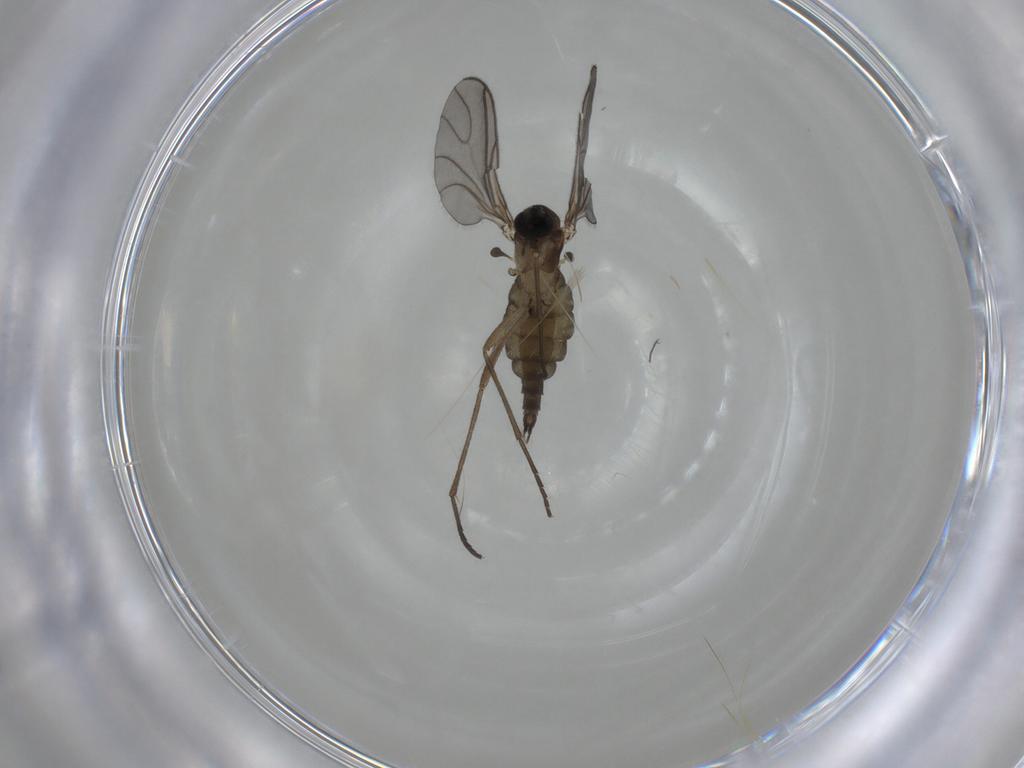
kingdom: Animalia
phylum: Arthropoda
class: Insecta
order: Diptera
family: Sciaridae
